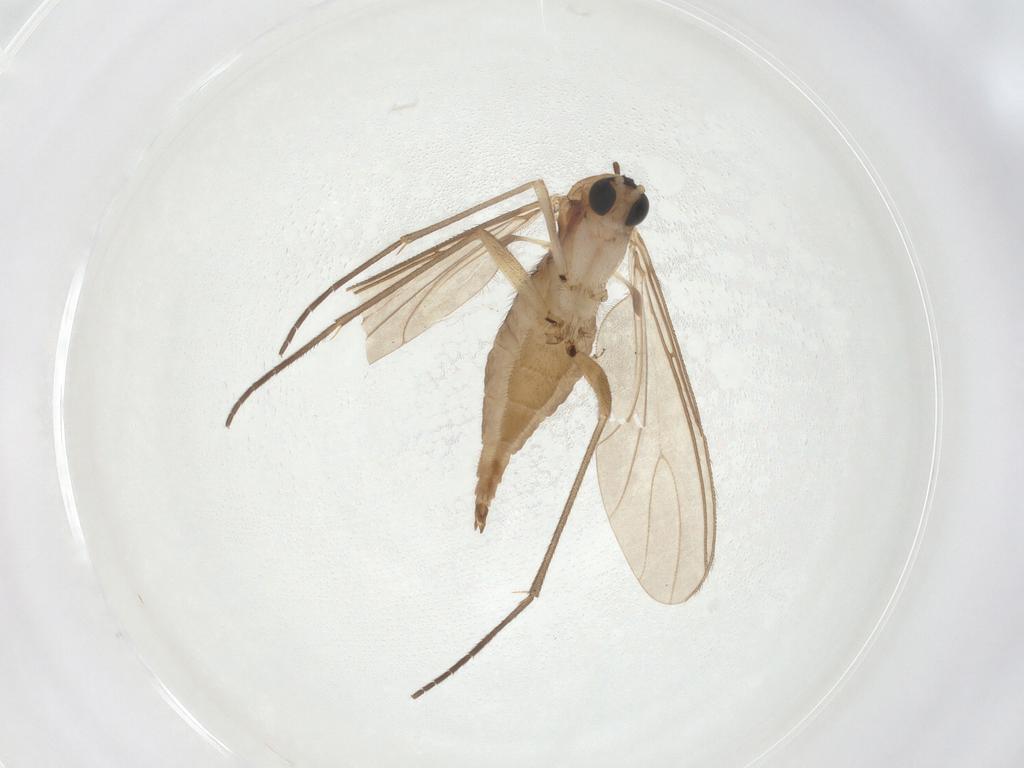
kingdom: Animalia
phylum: Arthropoda
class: Insecta
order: Diptera
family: Sciaridae
